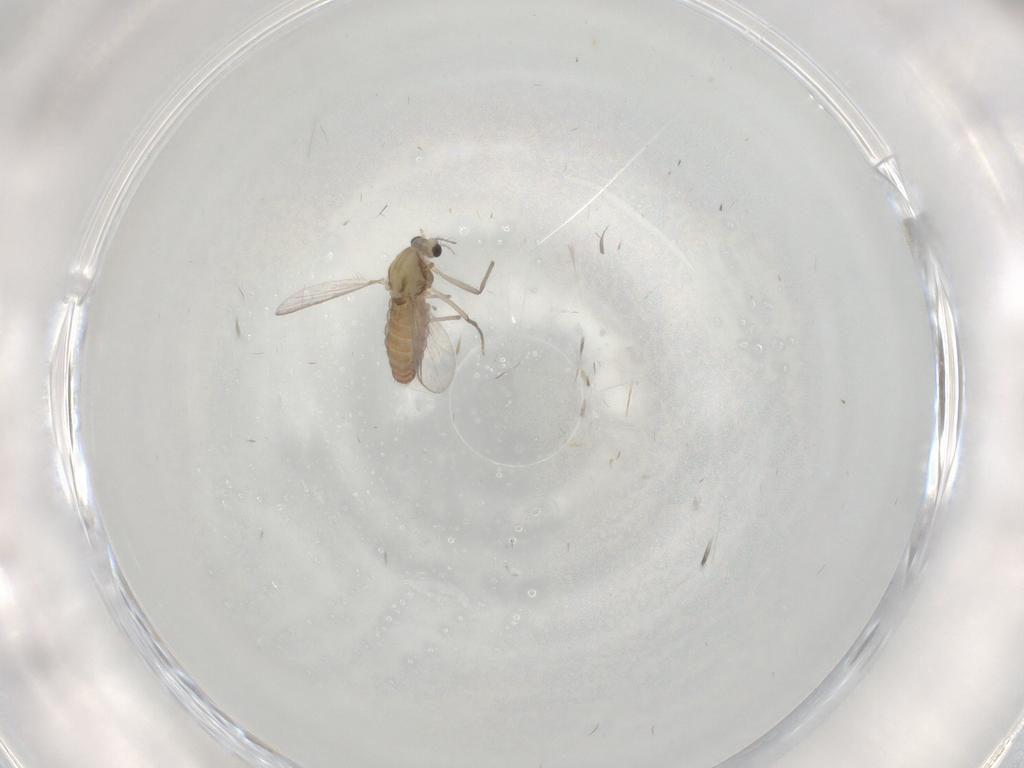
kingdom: Animalia
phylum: Arthropoda
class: Insecta
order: Diptera
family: Chironomidae
